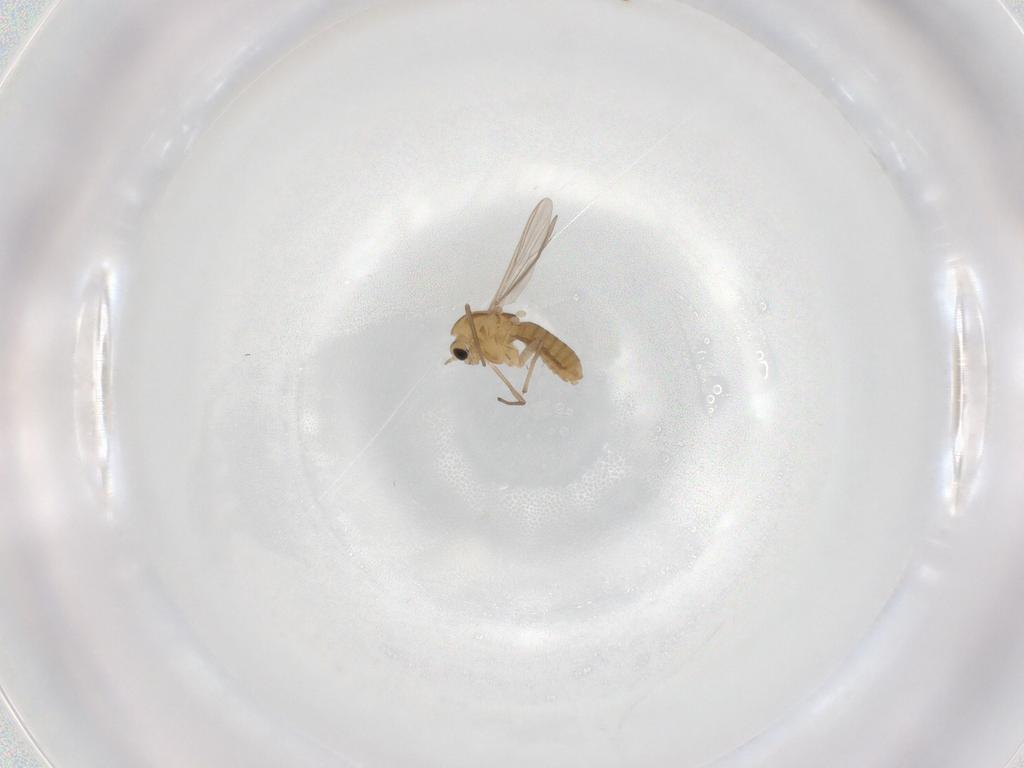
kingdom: Animalia
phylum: Arthropoda
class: Insecta
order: Diptera
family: Chironomidae
